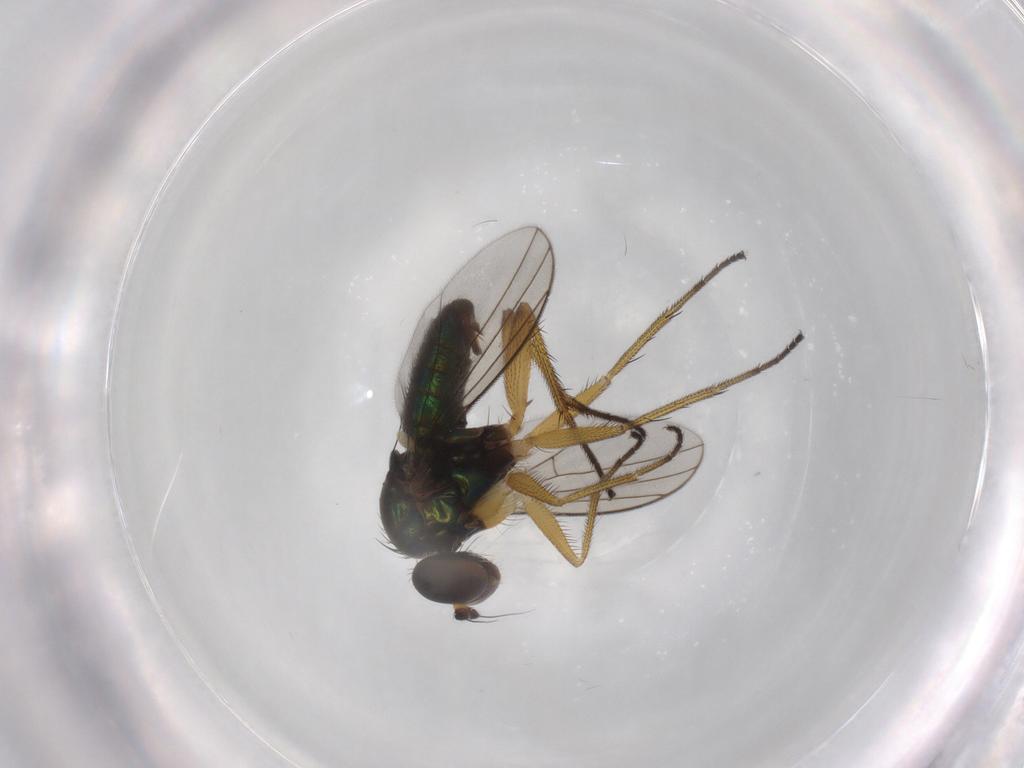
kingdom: Animalia
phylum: Arthropoda
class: Insecta
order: Diptera
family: Dolichopodidae
